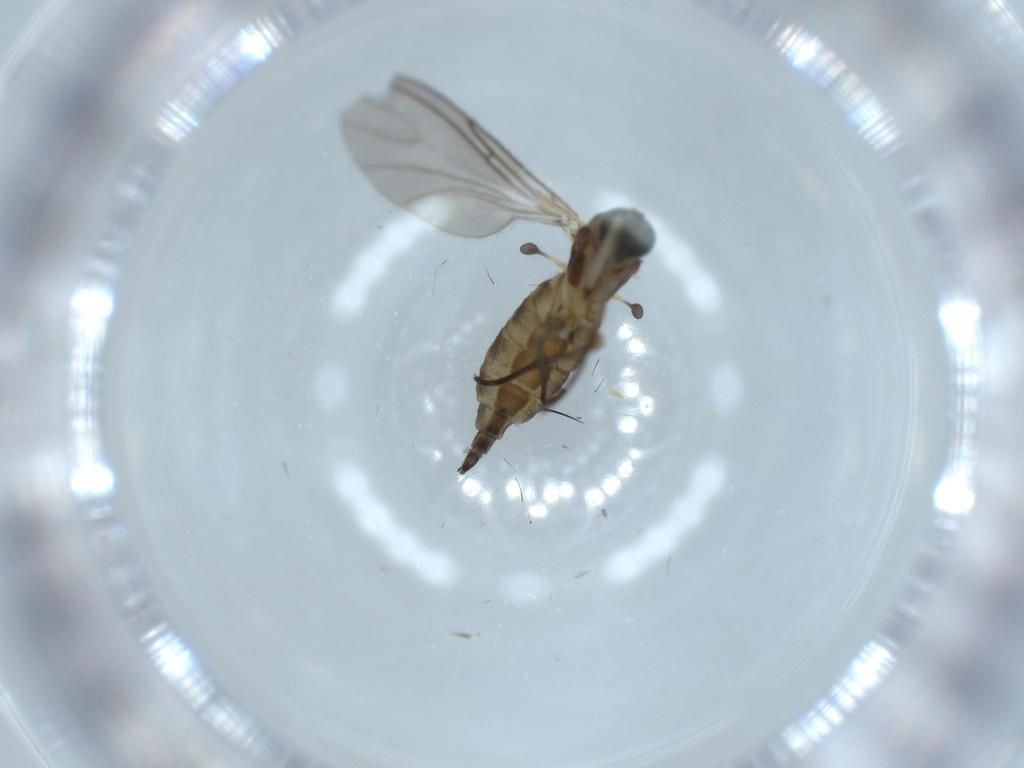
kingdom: Animalia
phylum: Arthropoda
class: Insecta
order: Diptera
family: Sciaridae
